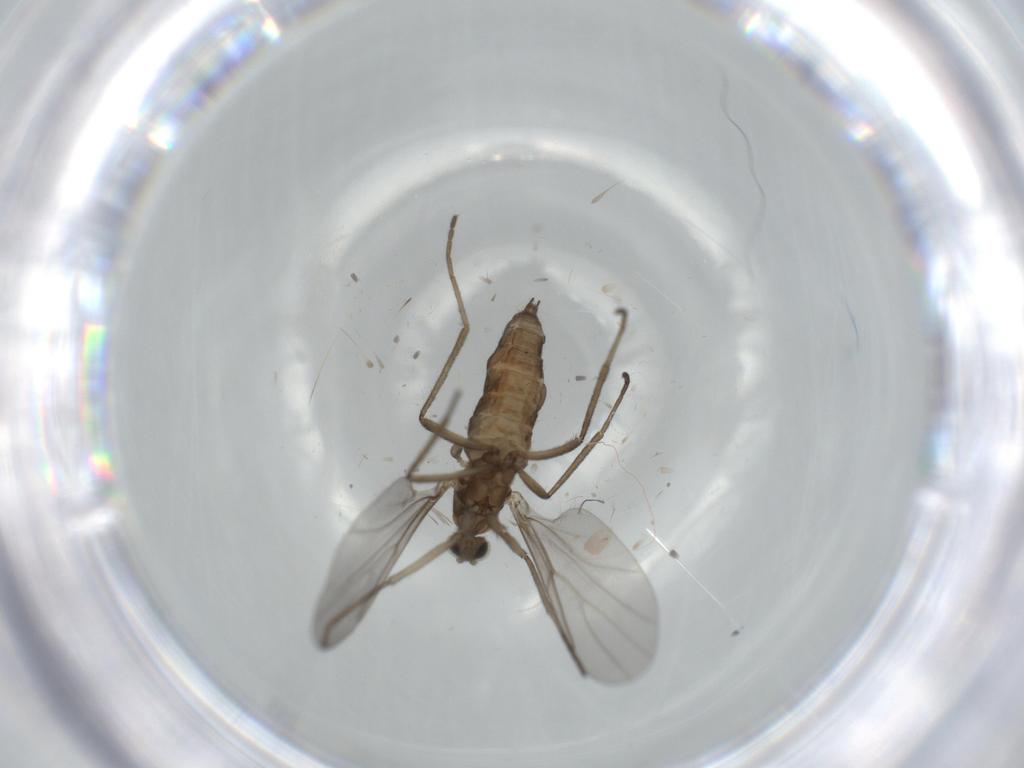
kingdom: Animalia
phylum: Arthropoda
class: Insecta
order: Diptera
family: Cecidomyiidae
